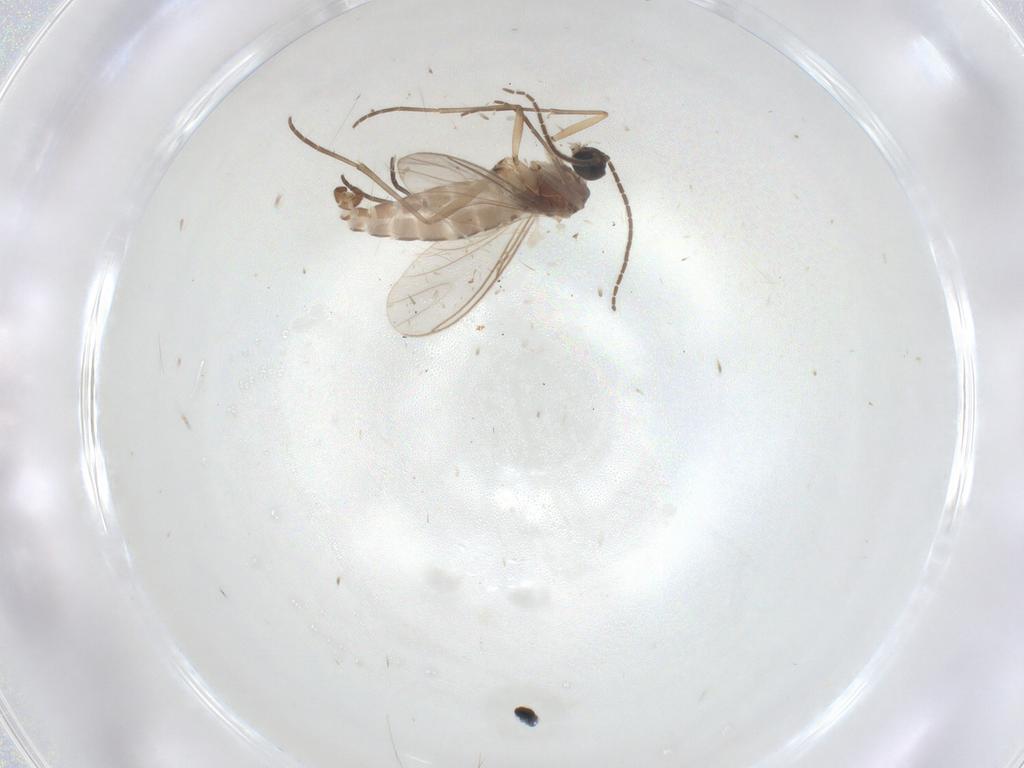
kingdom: Animalia
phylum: Arthropoda
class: Insecta
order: Diptera
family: Sciaridae
